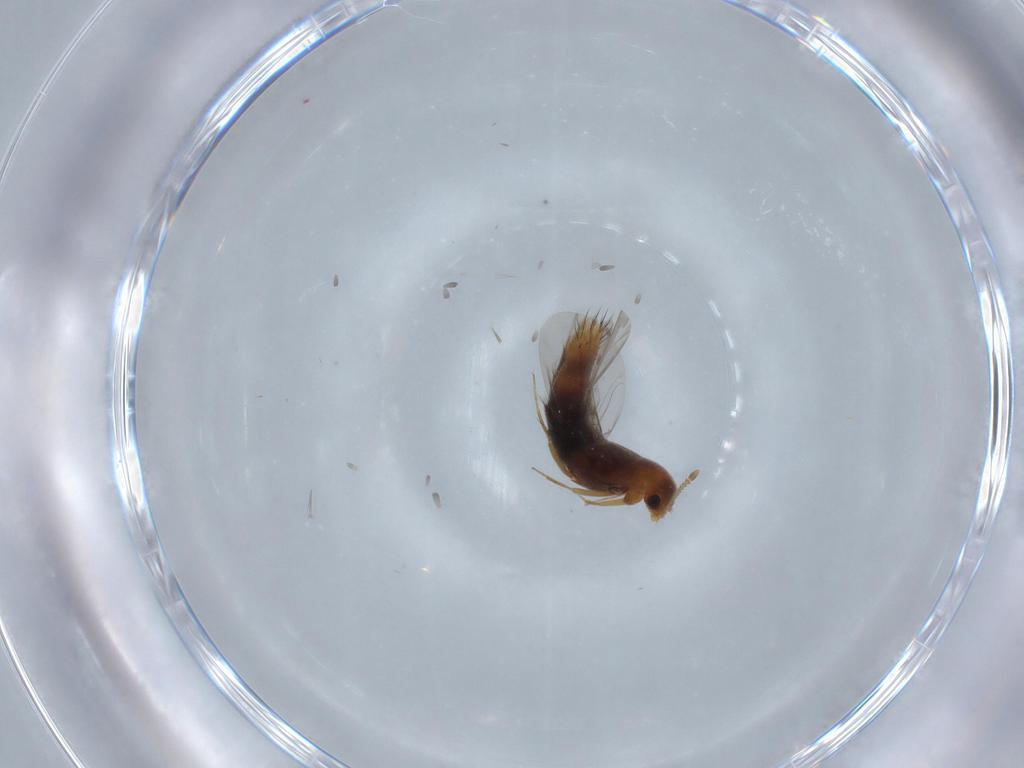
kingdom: Animalia
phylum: Arthropoda
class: Insecta
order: Coleoptera
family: Staphylinidae
